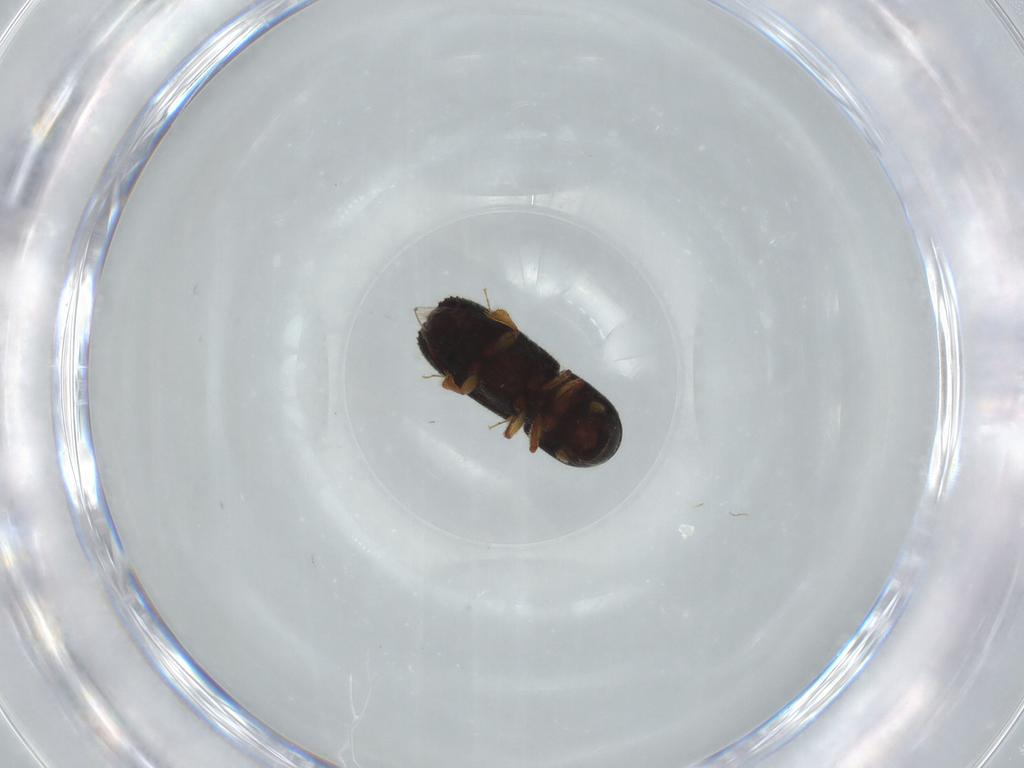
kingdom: Animalia
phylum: Arthropoda
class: Insecta
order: Coleoptera
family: Curculionidae
